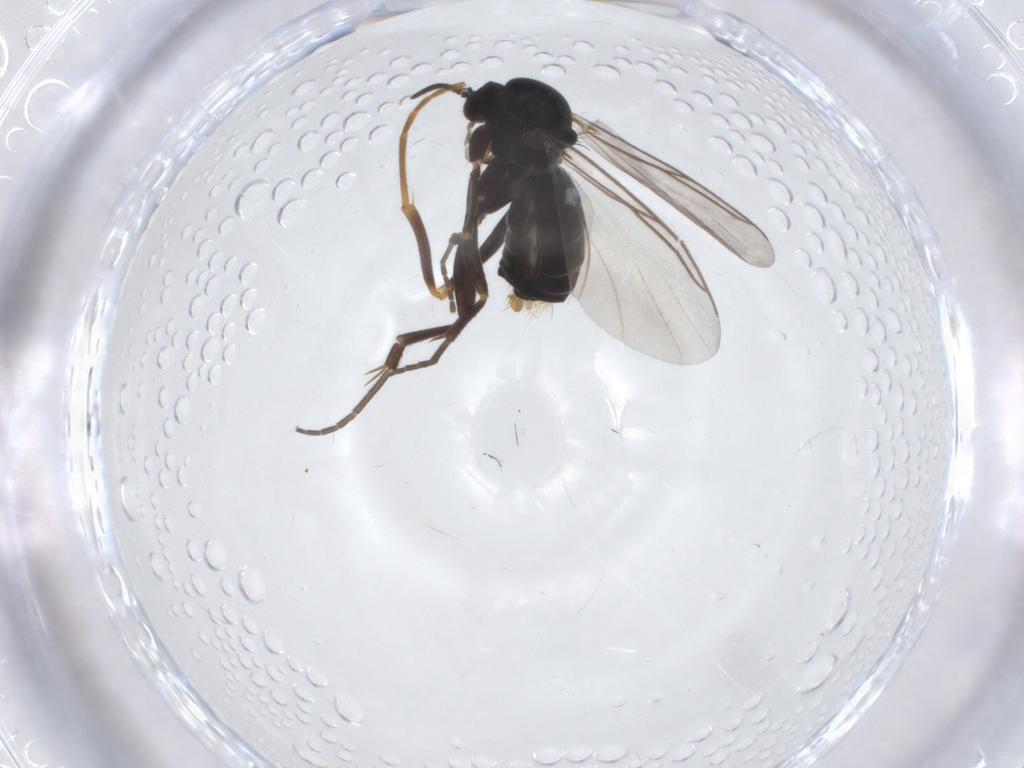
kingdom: Animalia
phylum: Arthropoda
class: Insecta
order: Diptera
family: Mycetophilidae
